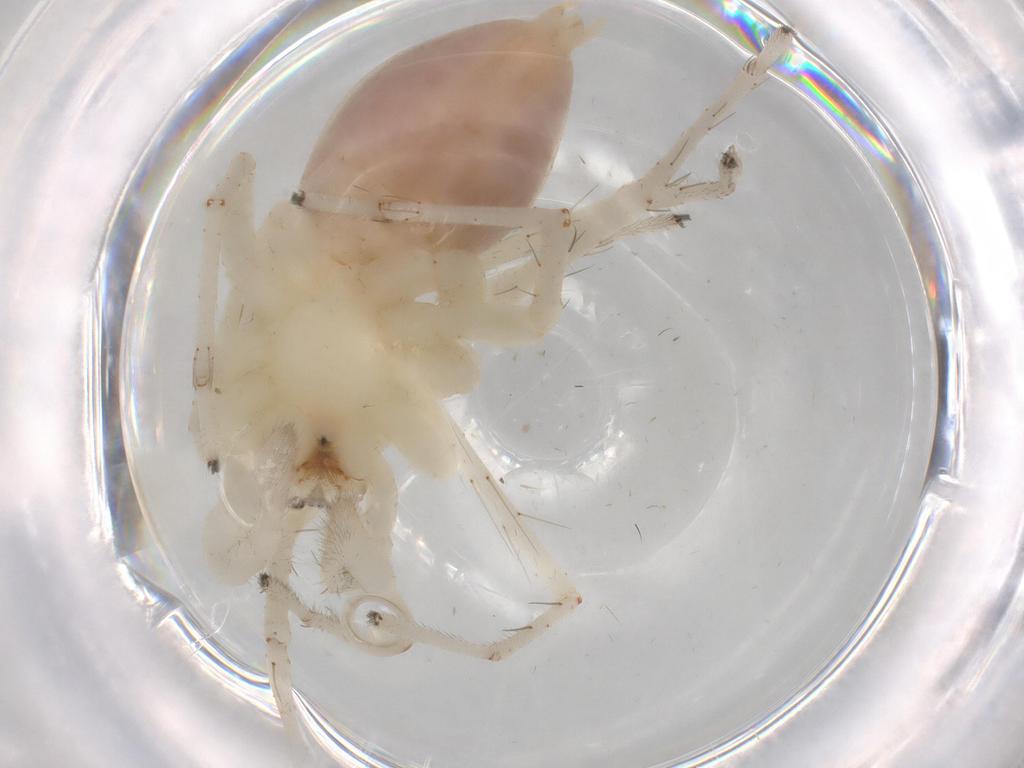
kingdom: Animalia
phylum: Arthropoda
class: Arachnida
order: Araneae
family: Anyphaenidae
